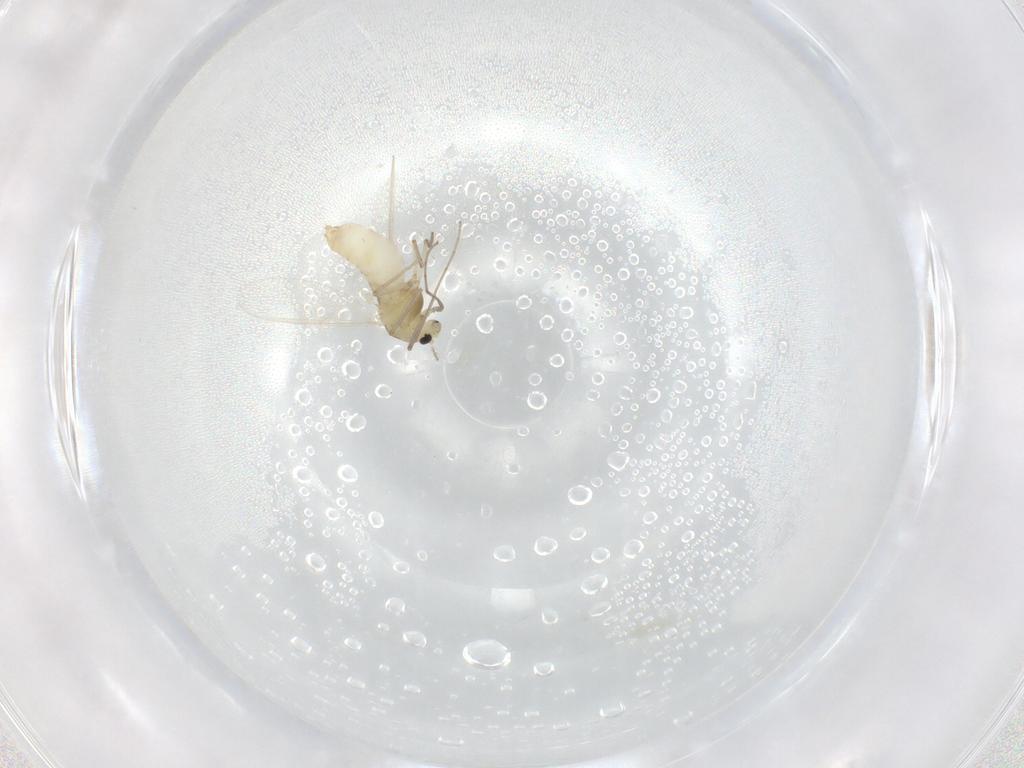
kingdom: Animalia
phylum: Arthropoda
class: Insecta
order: Diptera
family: Chironomidae
